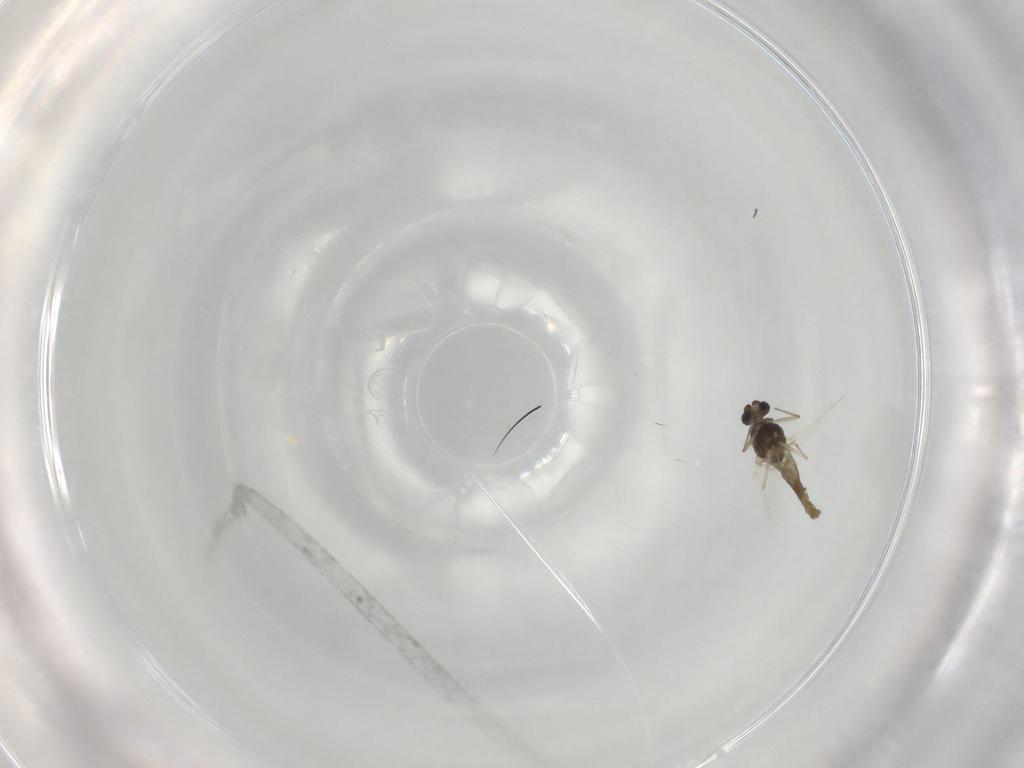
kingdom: Animalia
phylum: Arthropoda
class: Insecta
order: Diptera
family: Chironomidae
